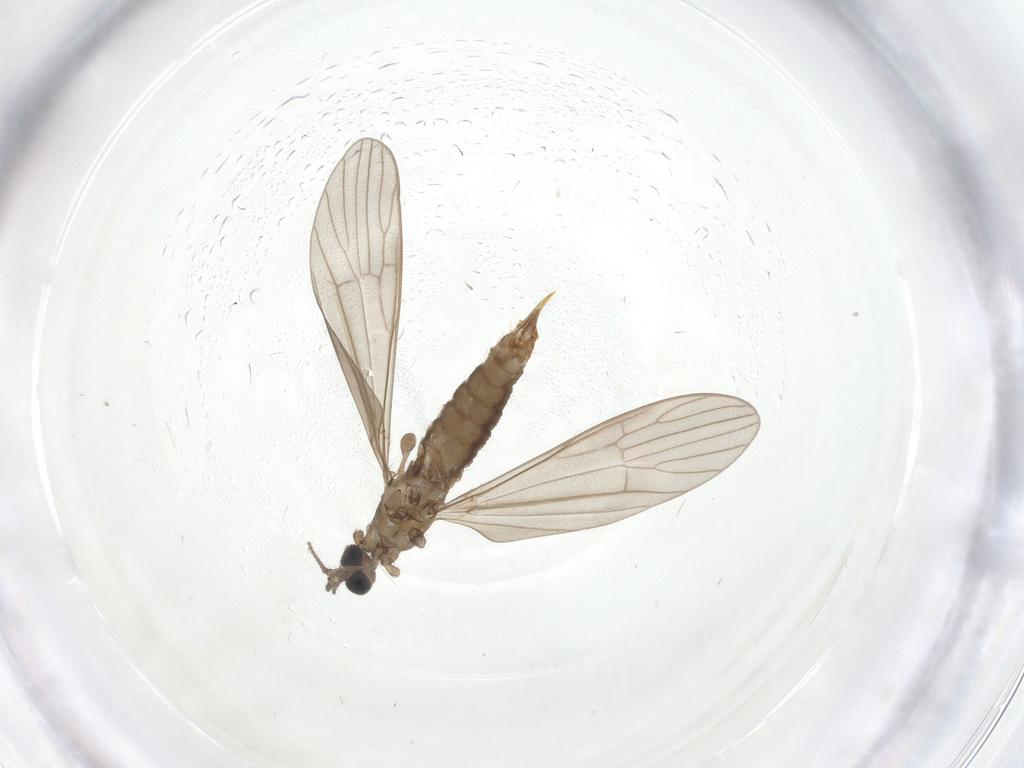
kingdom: Animalia
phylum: Arthropoda
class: Insecta
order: Diptera
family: Limoniidae
